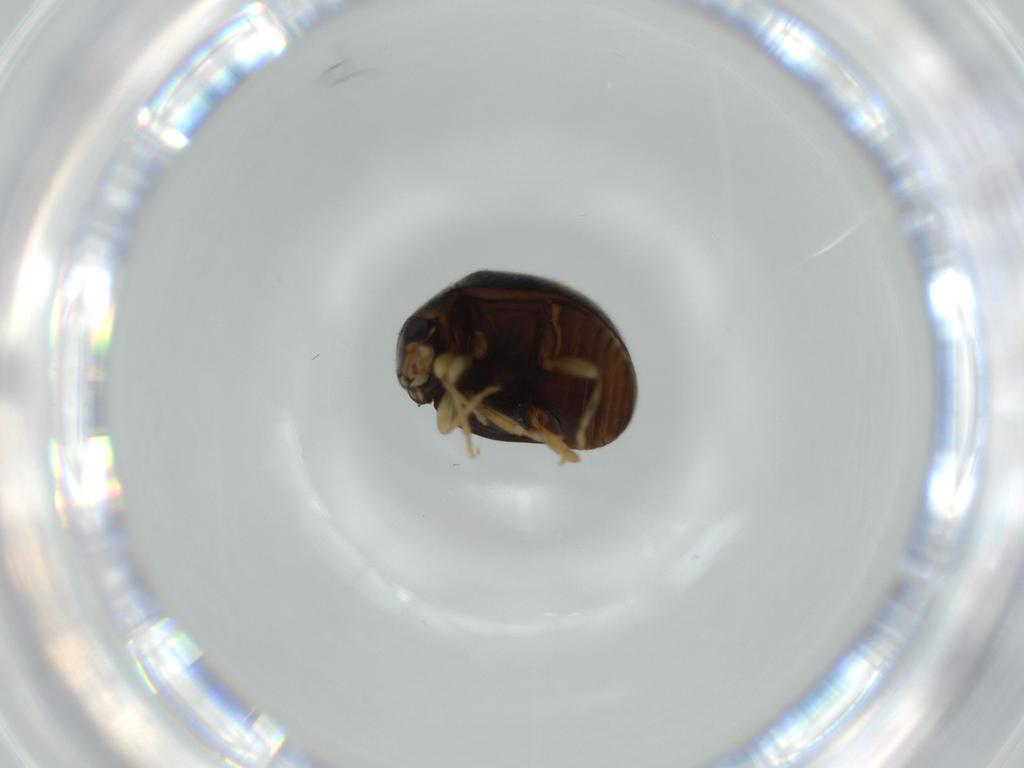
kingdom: Animalia
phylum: Arthropoda
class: Insecta
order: Coleoptera
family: Coccinellidae
